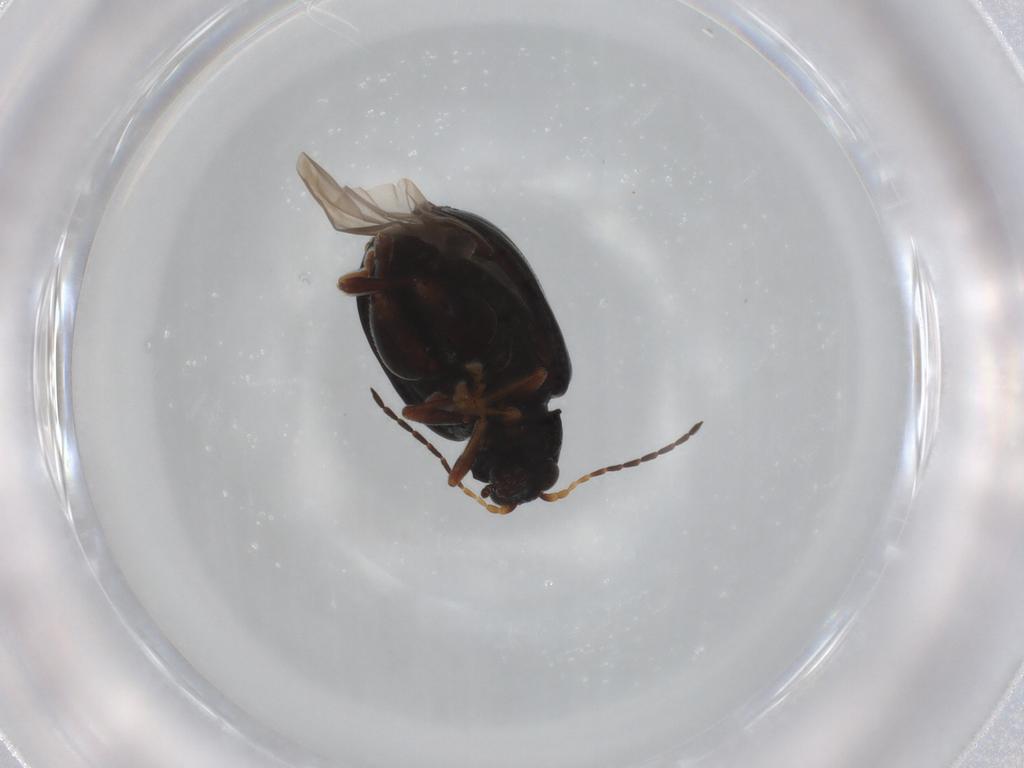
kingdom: Animalia
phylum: Arthropoda
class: Insecta
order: Coleoptera
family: Chrysomelidae
